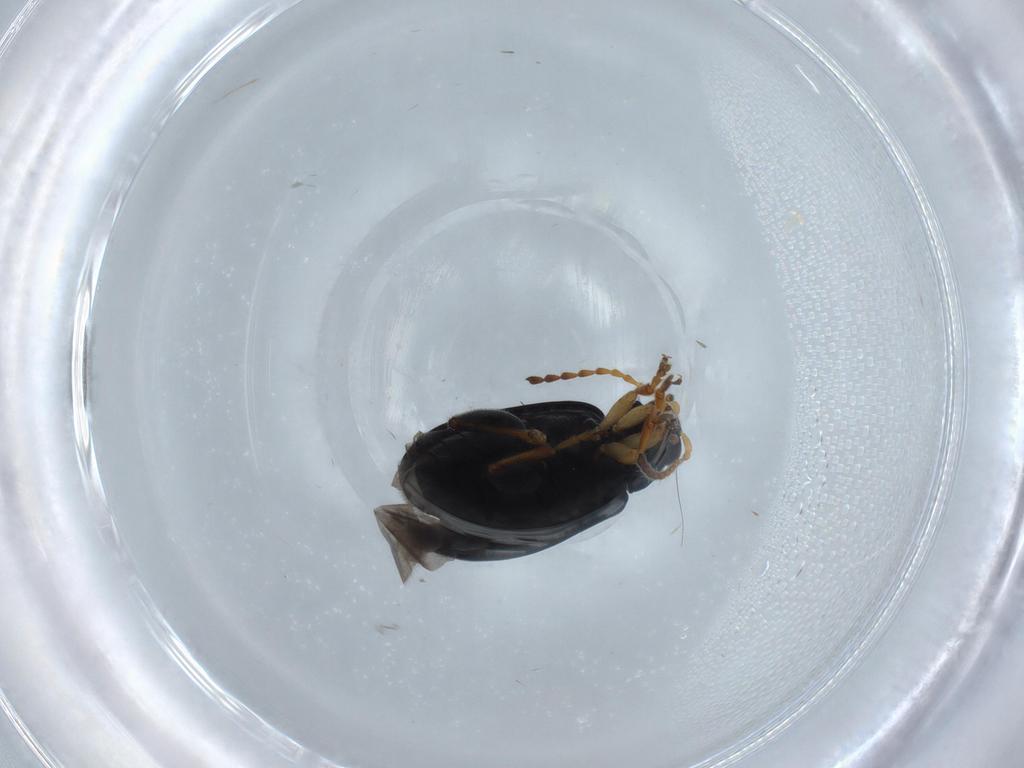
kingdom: Animalia
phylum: Arthropoda
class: Insecta
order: Coleoptera
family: Chrysomelidae
